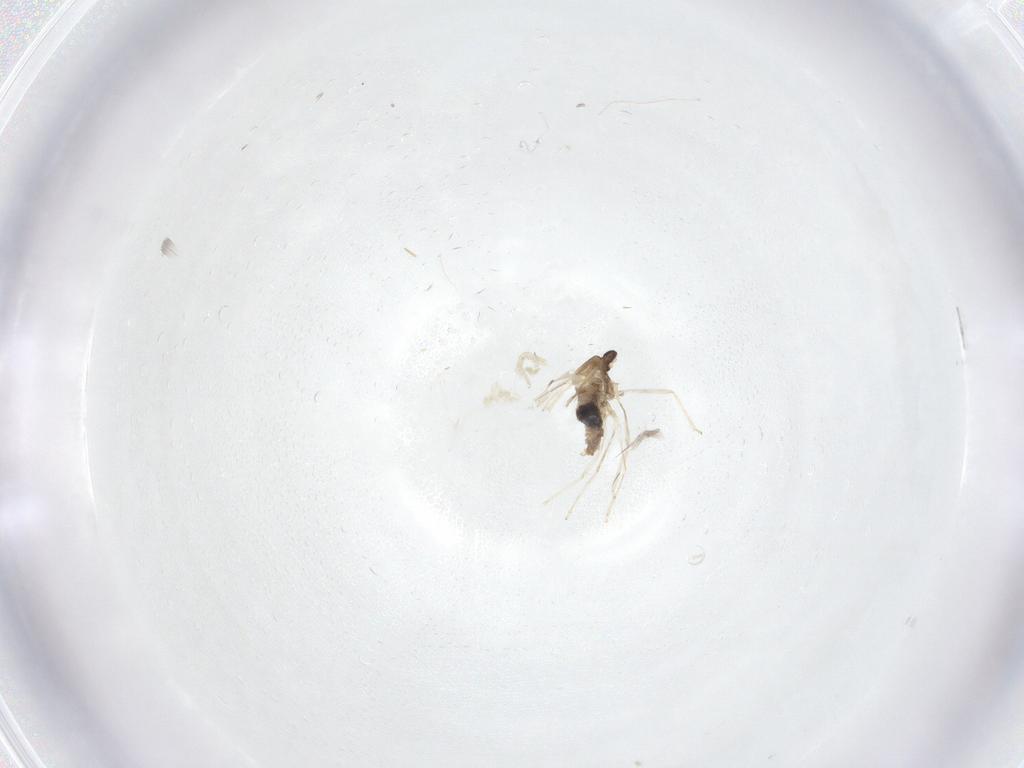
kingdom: Animalia
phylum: Arthropoda
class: Insecta
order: Diptera
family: Cecidomyiidae
